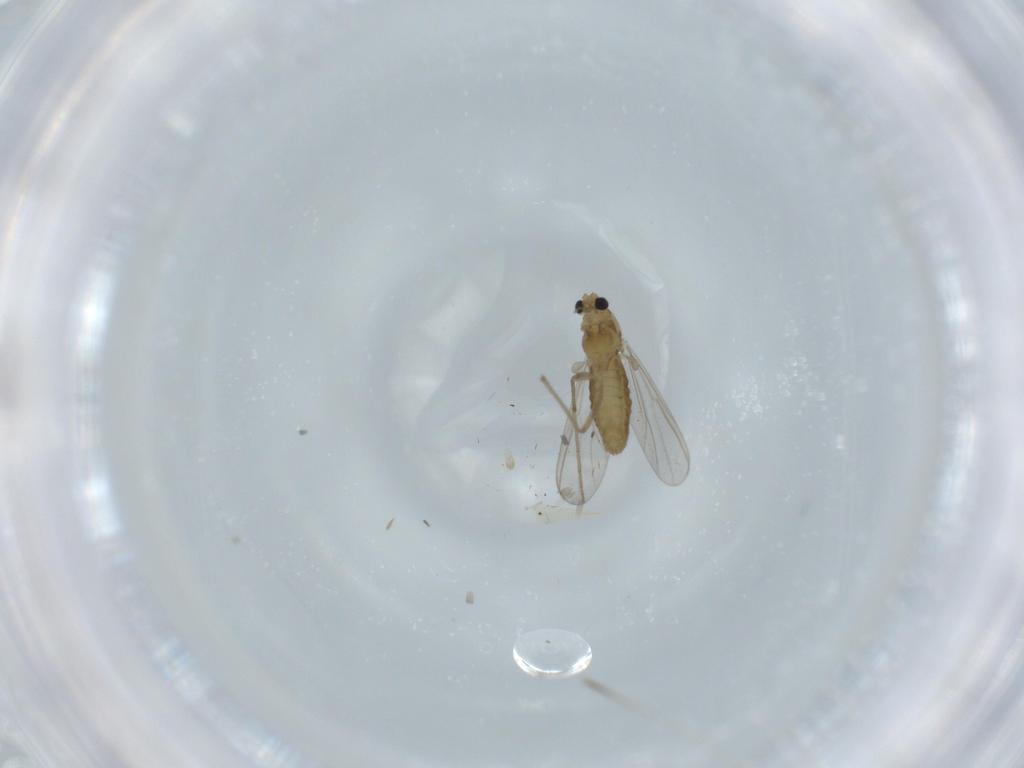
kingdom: Animalia
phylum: Arthropoda
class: Insecta
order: Diptera
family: Chironomidae
